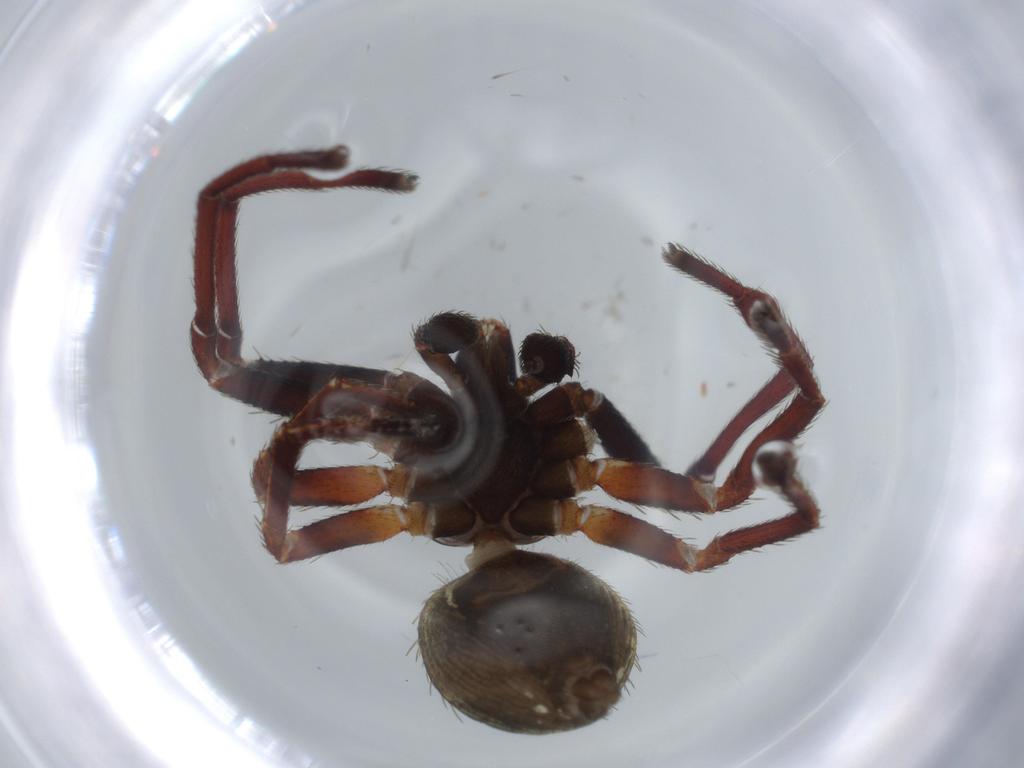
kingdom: Animalia
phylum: Arthropoda
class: Arachnida
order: Araneae
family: Thomisidae
